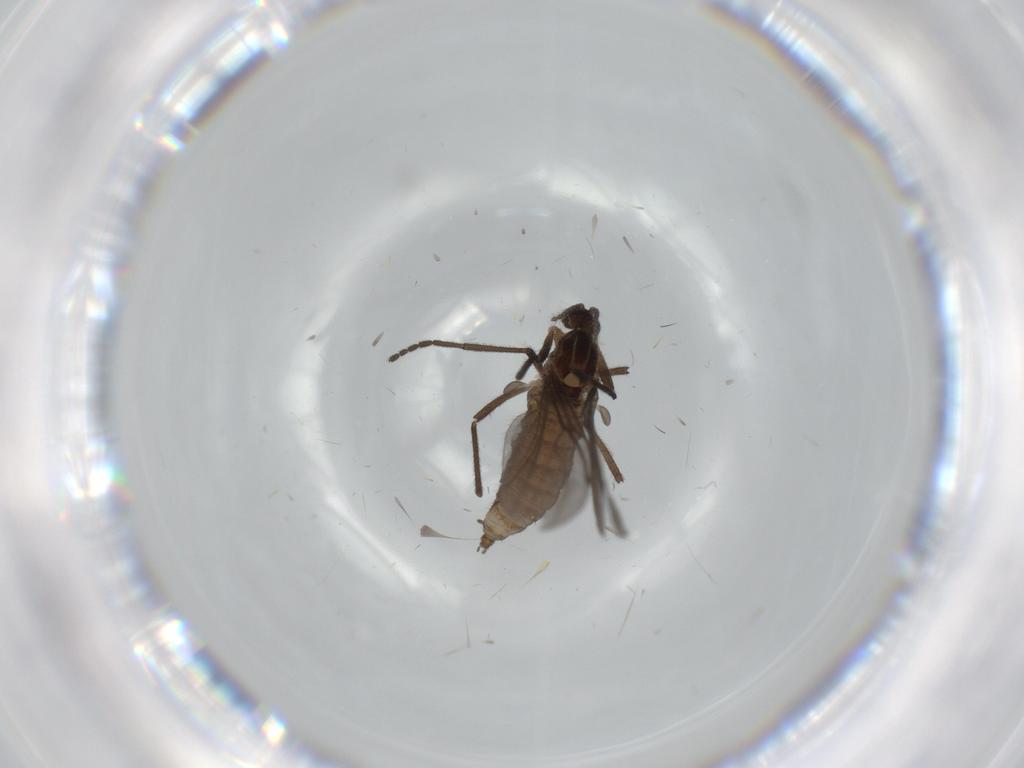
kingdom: Animalia
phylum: Arthropoda
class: Insecta
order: Diptera
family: Cecidomyiidae
